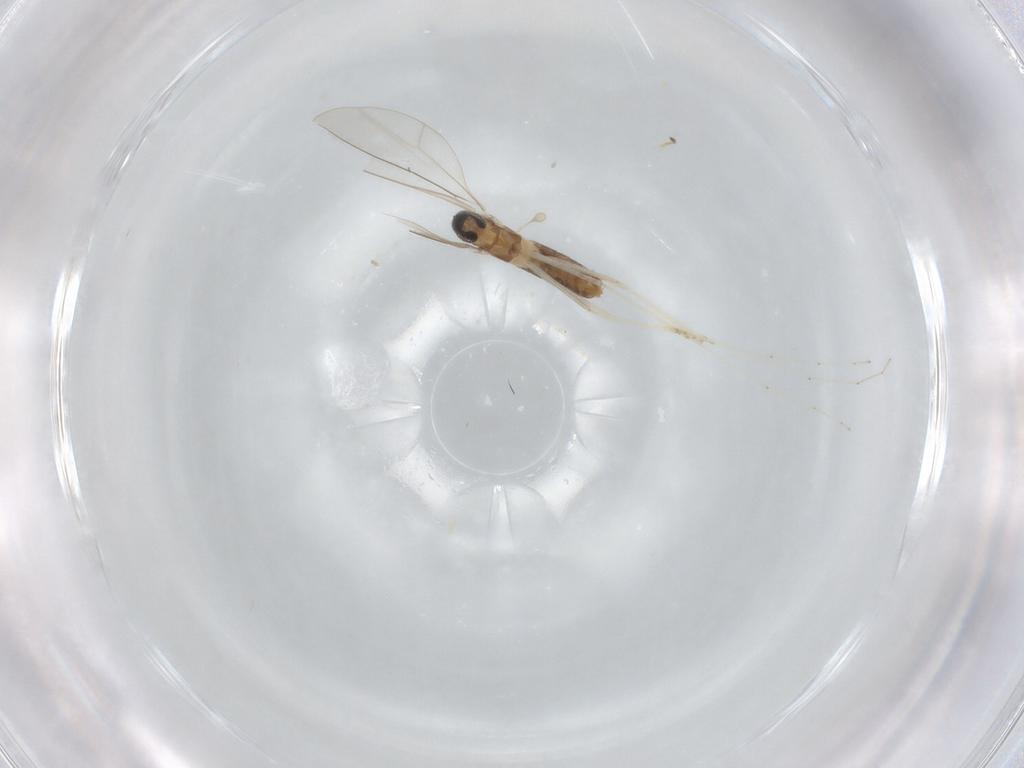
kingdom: Animalia
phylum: Arthropoda
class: Insecta
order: Diptera
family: Cecidomyiidae
